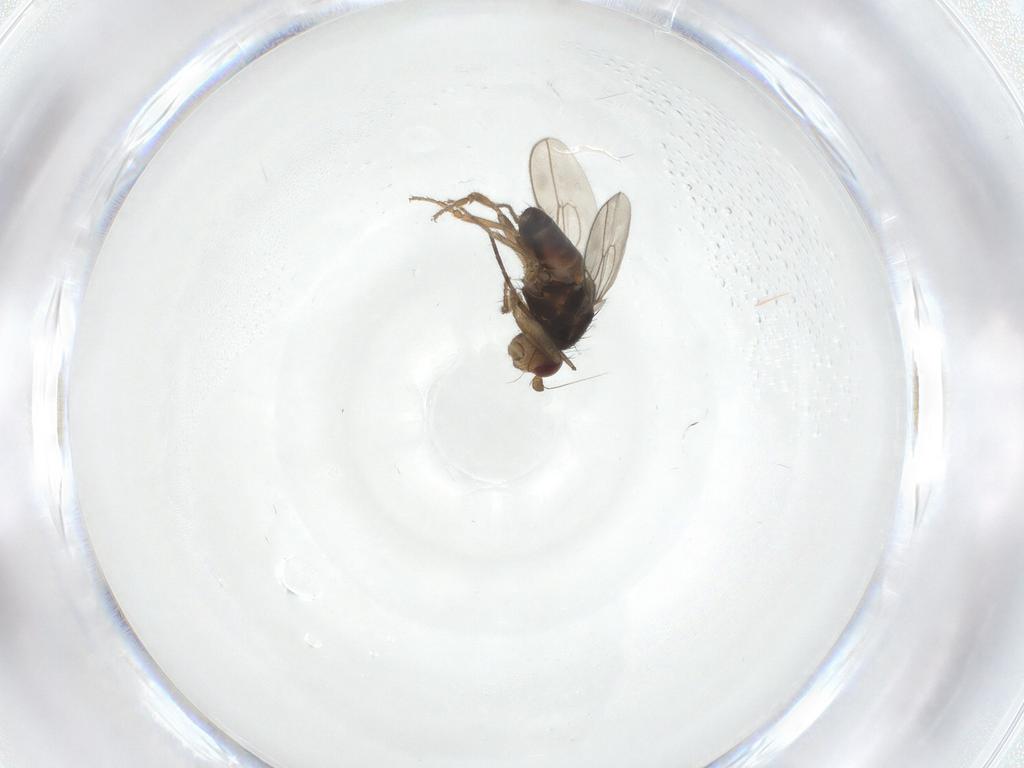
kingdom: Animalia
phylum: Arthropoda
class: Insecta
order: Diptera
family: Sphaeroceridae
